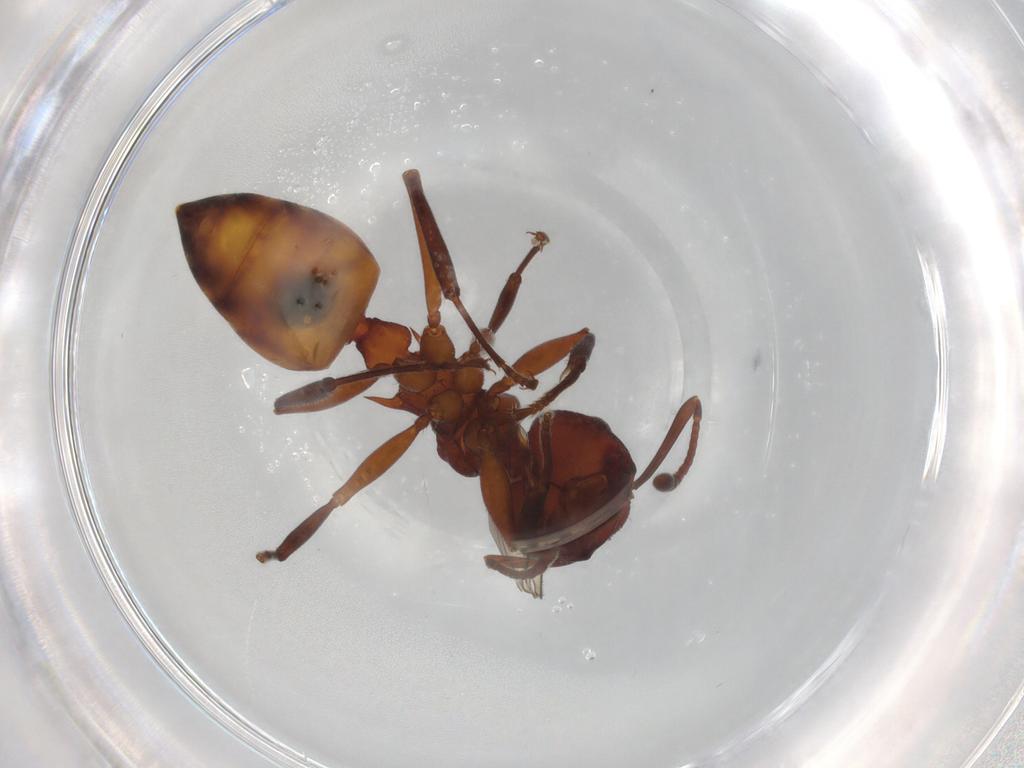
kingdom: Animalia
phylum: Arthropoda
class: Insecta
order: Hymenoptera
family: Formicidae
